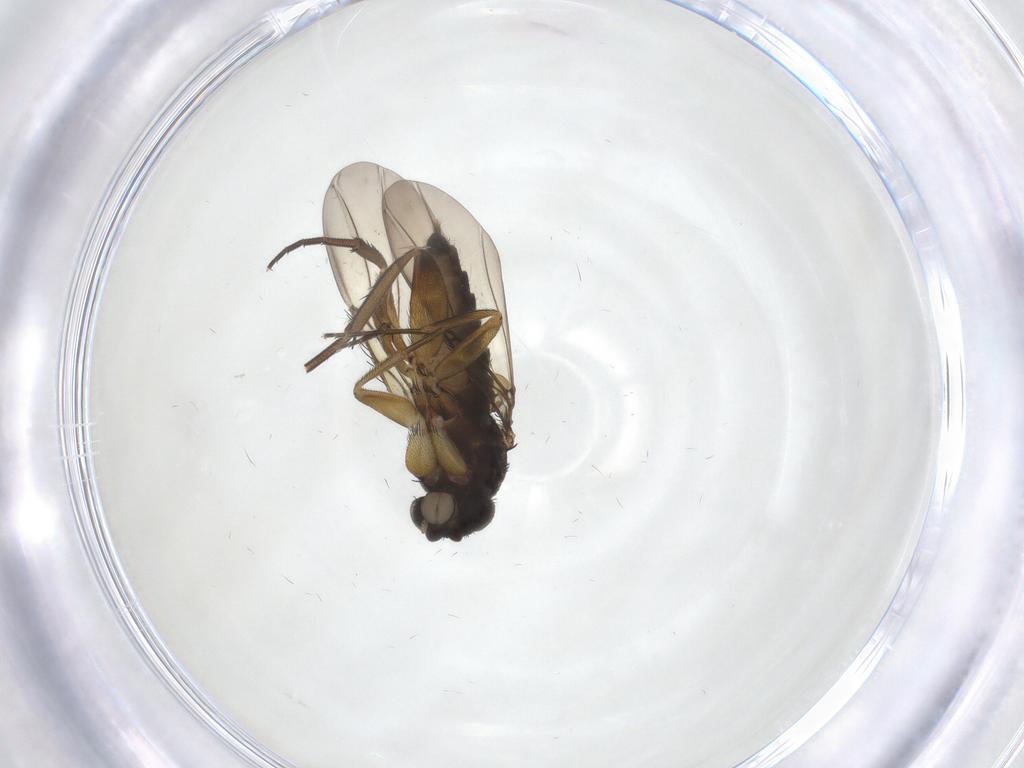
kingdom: Animalia
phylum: Arthropoda
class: Insecta
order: Diptera
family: Phoridae
